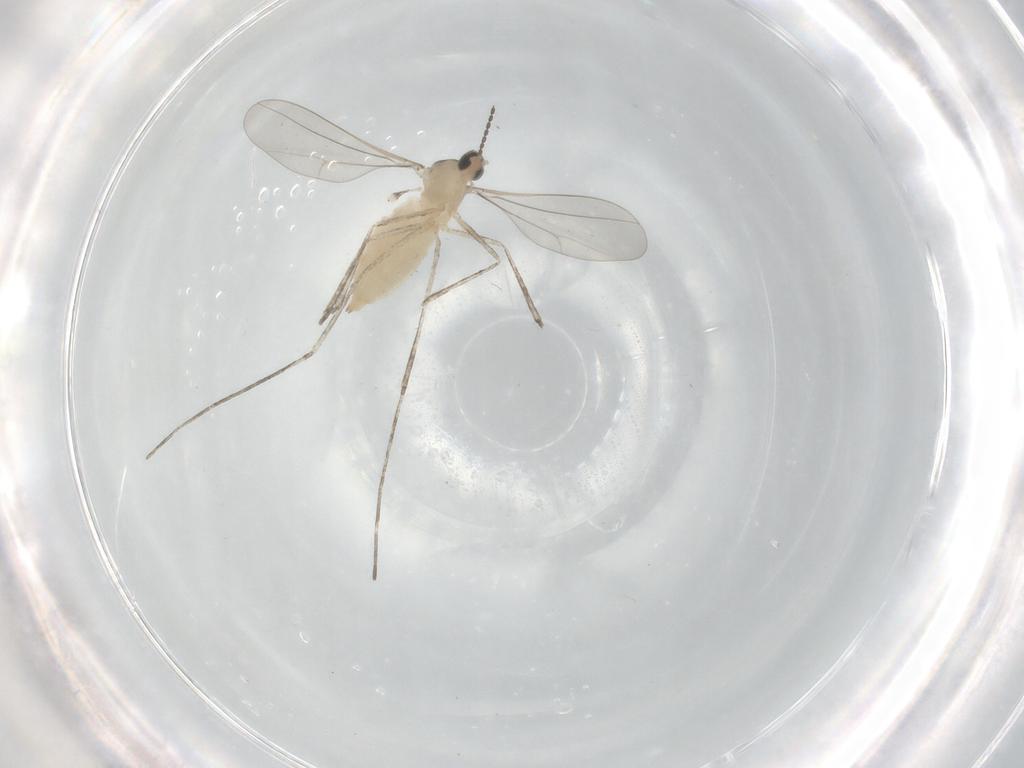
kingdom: Animalia
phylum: Arthropoda
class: Insecta
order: Diptera
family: Cecidomyiidae
